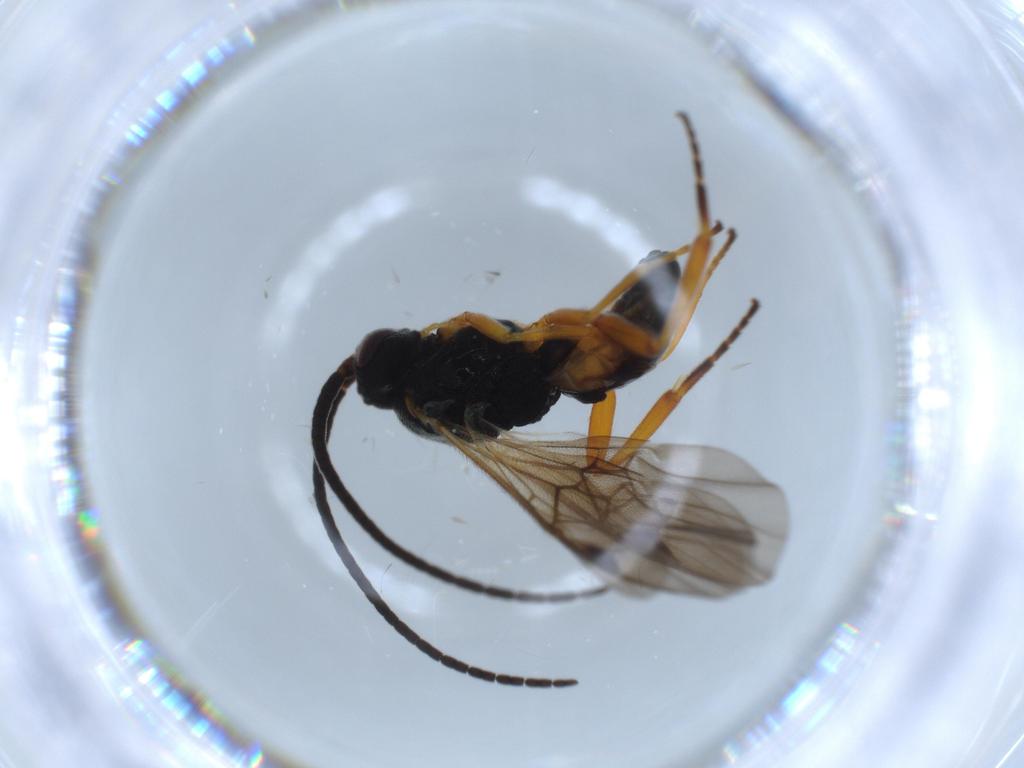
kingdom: Animalia
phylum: Arthropoda
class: Insecta
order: Hymenoptera
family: Braconidae
